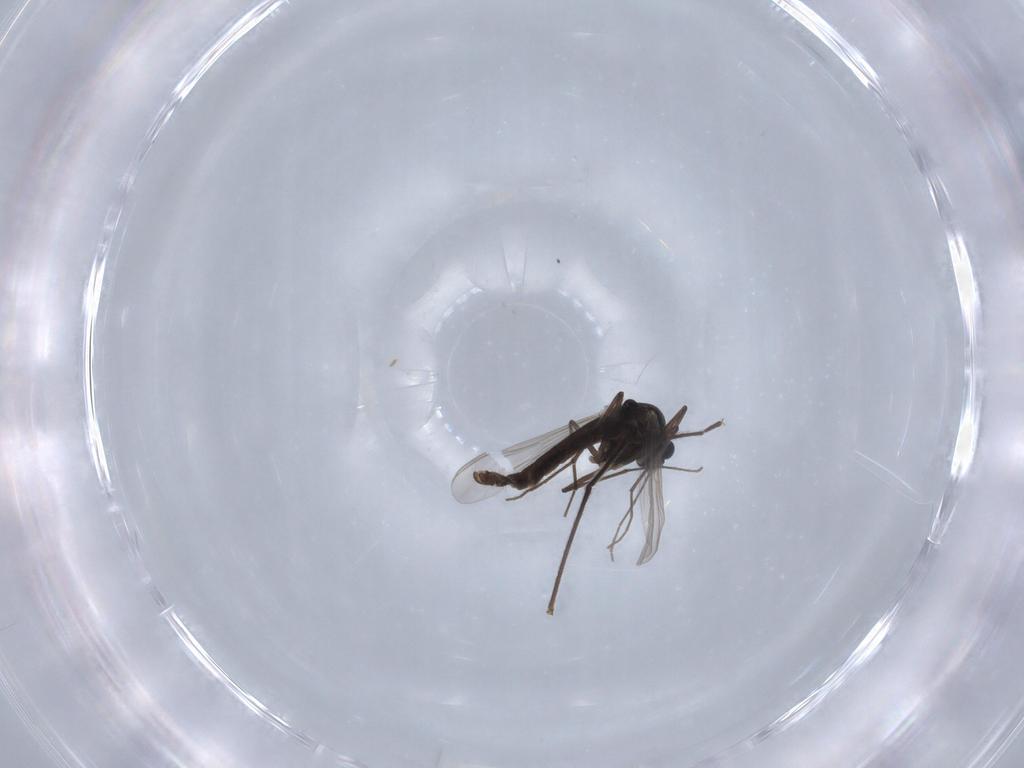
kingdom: Animalia
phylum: Arthropoda
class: Insecta
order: Diptera
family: Chironomidae
